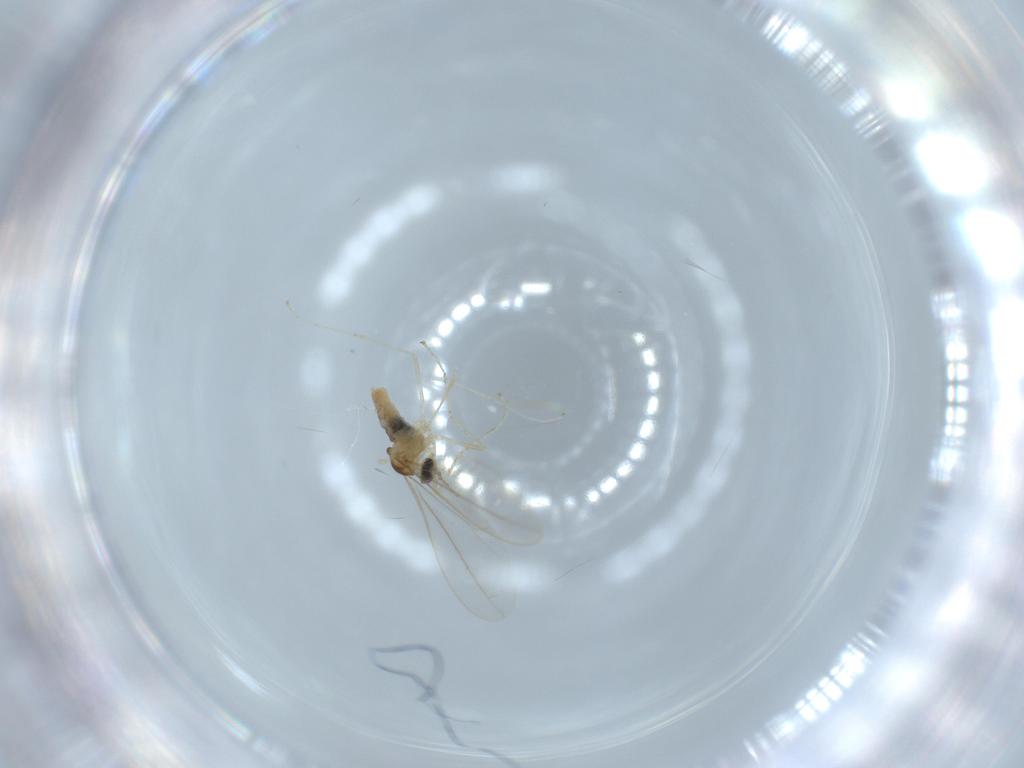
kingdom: Animalia
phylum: Arthropoda
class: Insecta
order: Diptera
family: Cecidomyiidae
